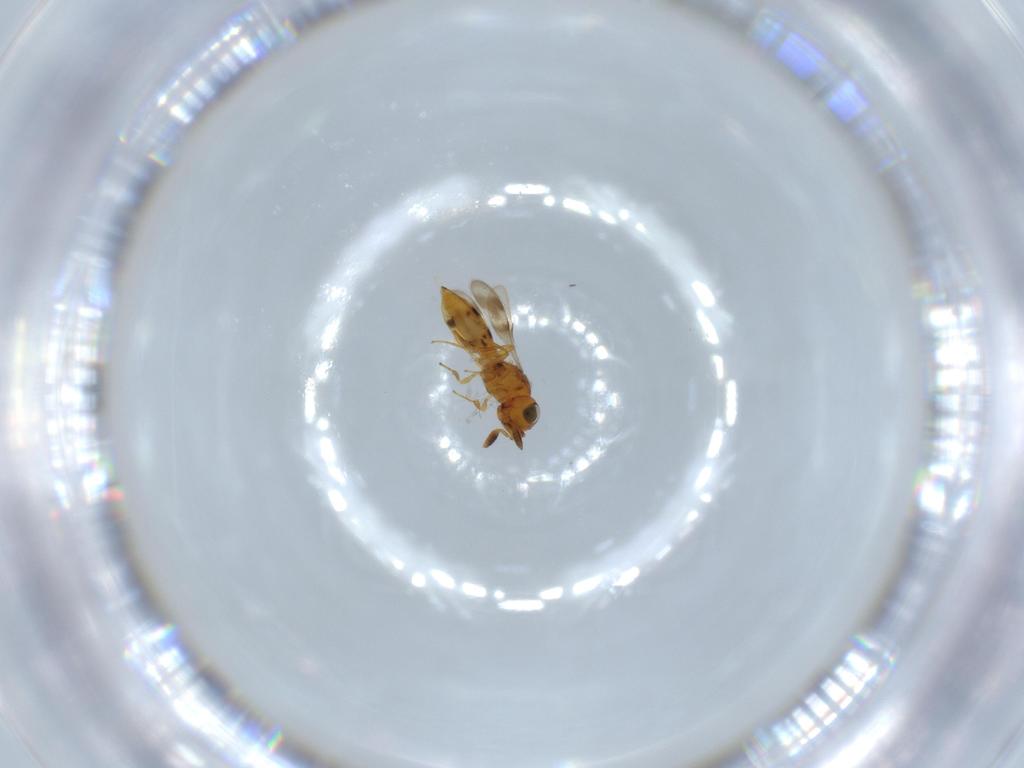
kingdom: Animalia
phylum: Arthropoda
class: Insecta
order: Hymenoptera
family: Scelionidae
